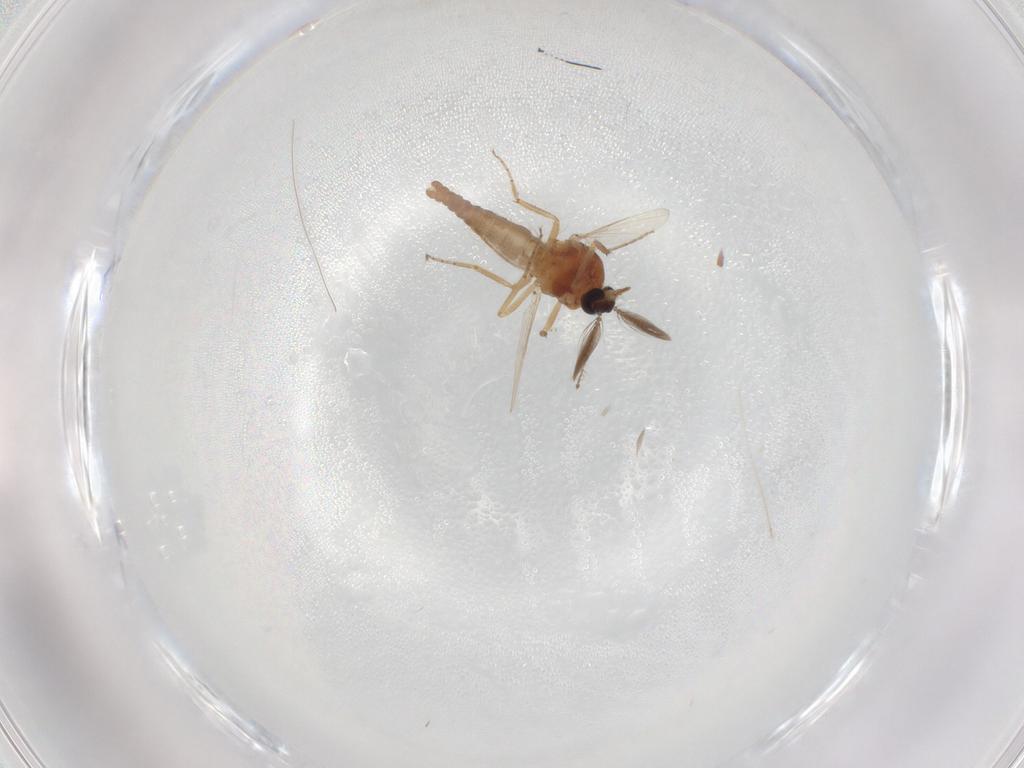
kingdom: Animalia
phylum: Arthropoda
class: Insecta
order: Diptera
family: Ceratopogonidae
